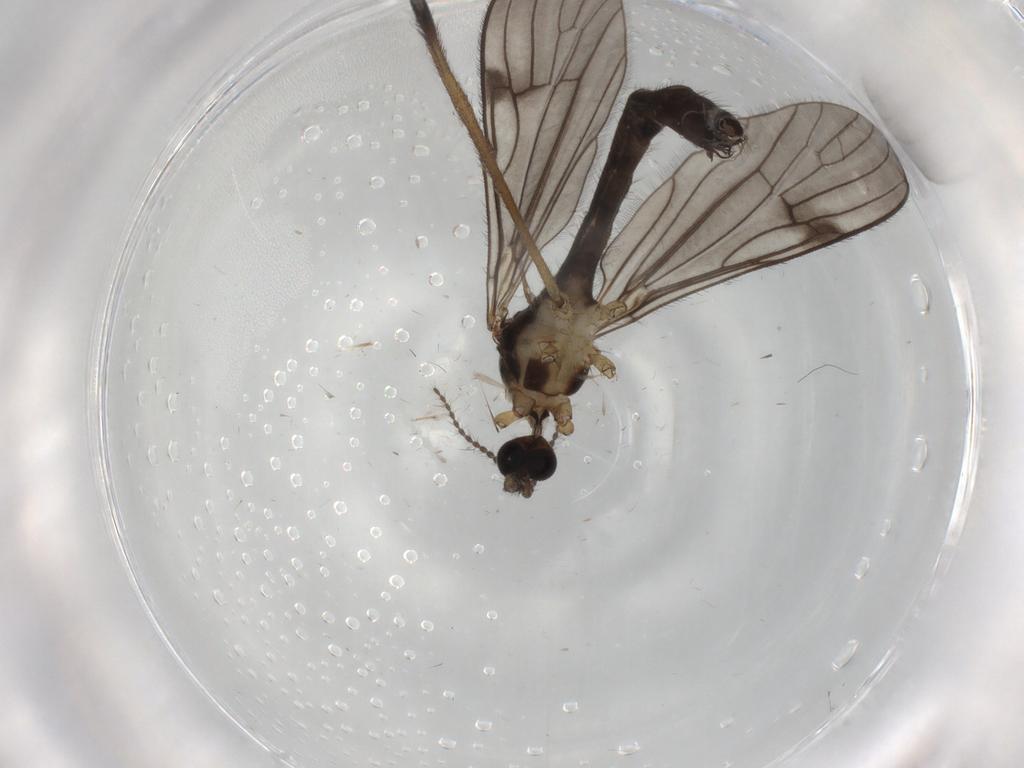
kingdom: Animalia
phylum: Arthropoda
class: Insecta
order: Diptera
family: Limoniidae
